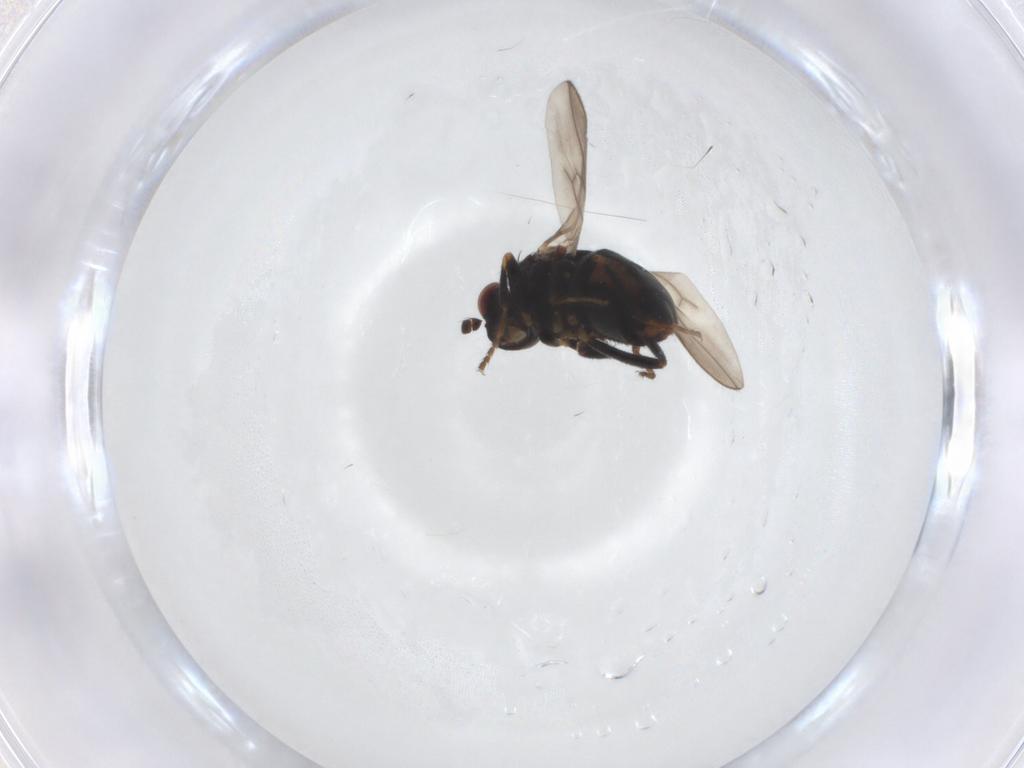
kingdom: Animalia
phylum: Arthropoda
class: Insecta
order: Diptera
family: Sphaeroceridae
